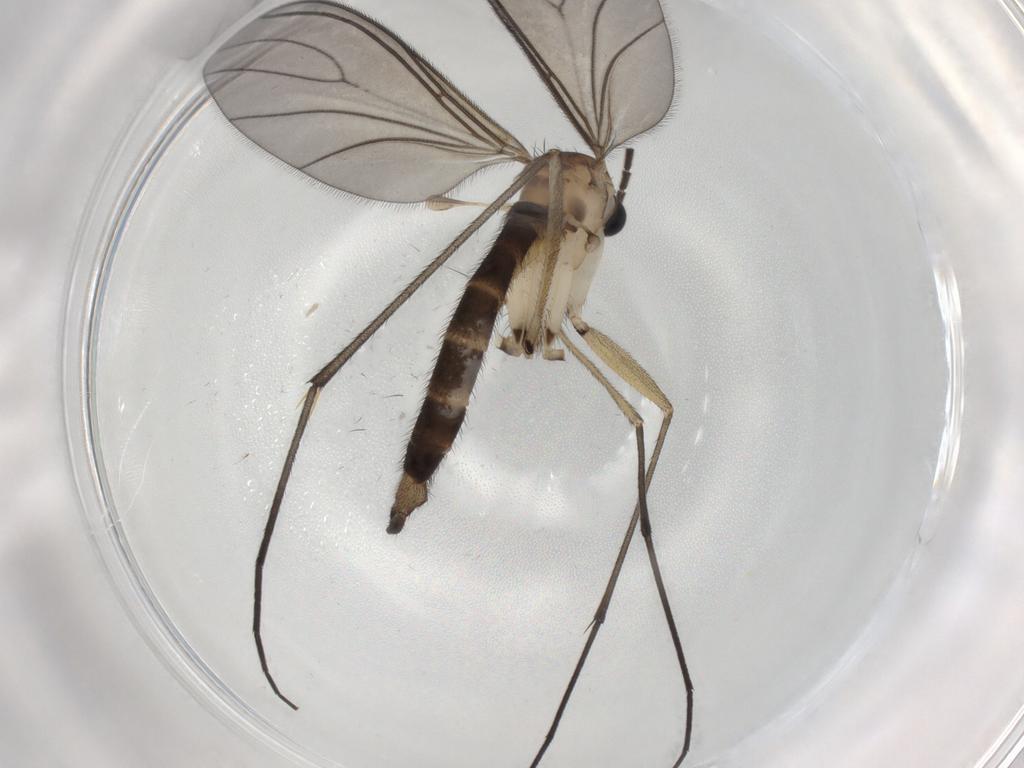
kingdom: Animalia
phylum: Arthropoda
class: Insecta
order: Diptera
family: Sciaridae
